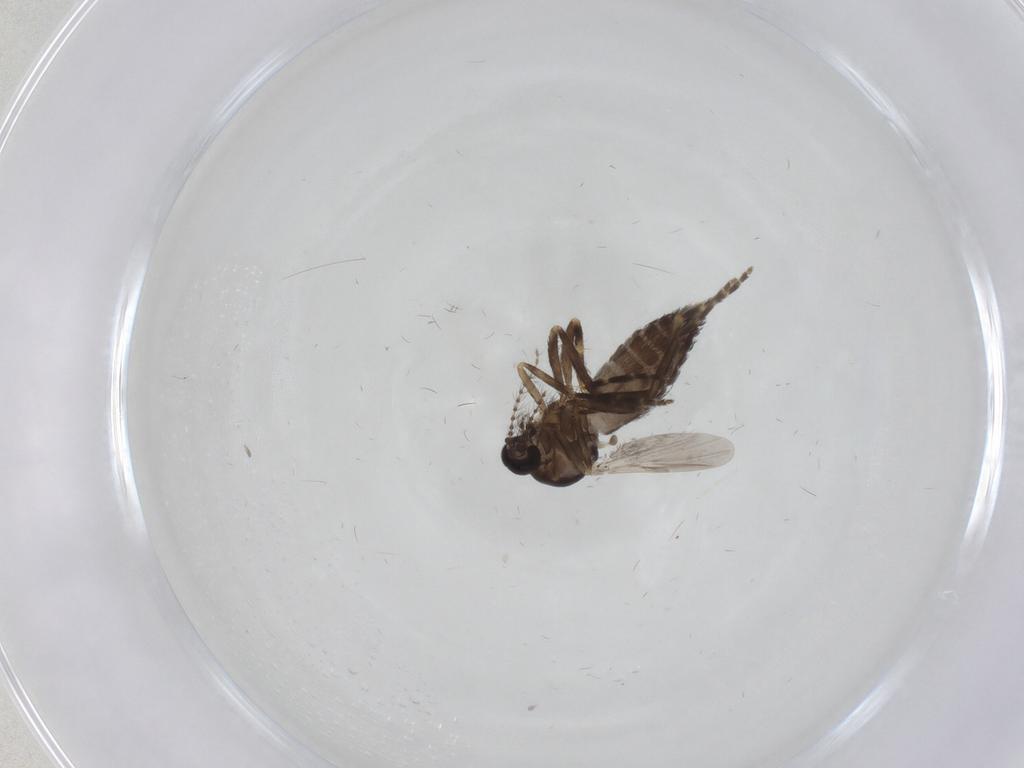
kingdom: Animalia
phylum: Arthropoda
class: Insecta
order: Diptera
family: Ceratopogonidae
